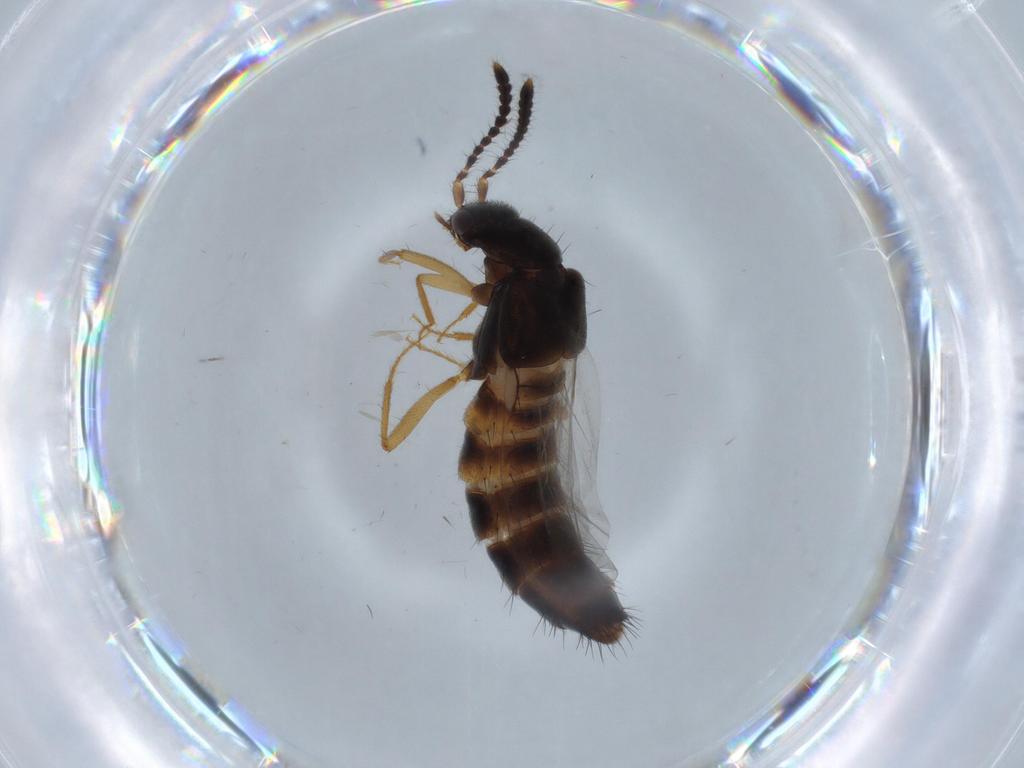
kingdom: Animalia
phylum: Arthropoda
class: Insecta
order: Coleoptera
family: Staphylinidae
